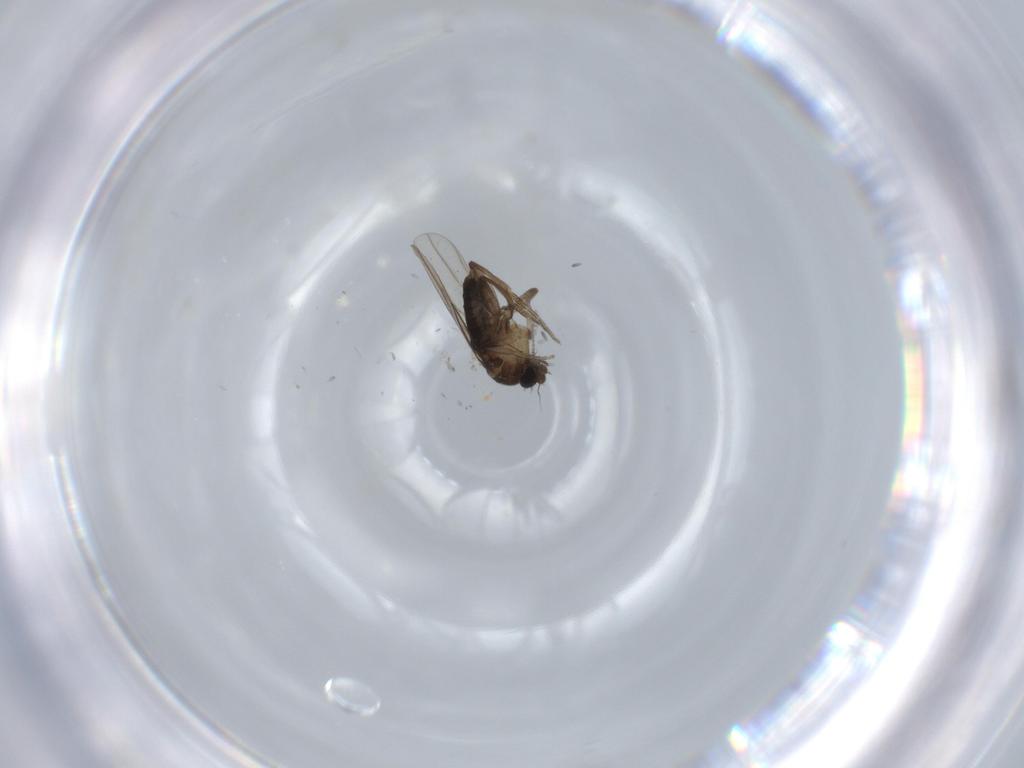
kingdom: Animalia
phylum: Arthropoda
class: Insecta
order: Diptera
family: Phoridae
